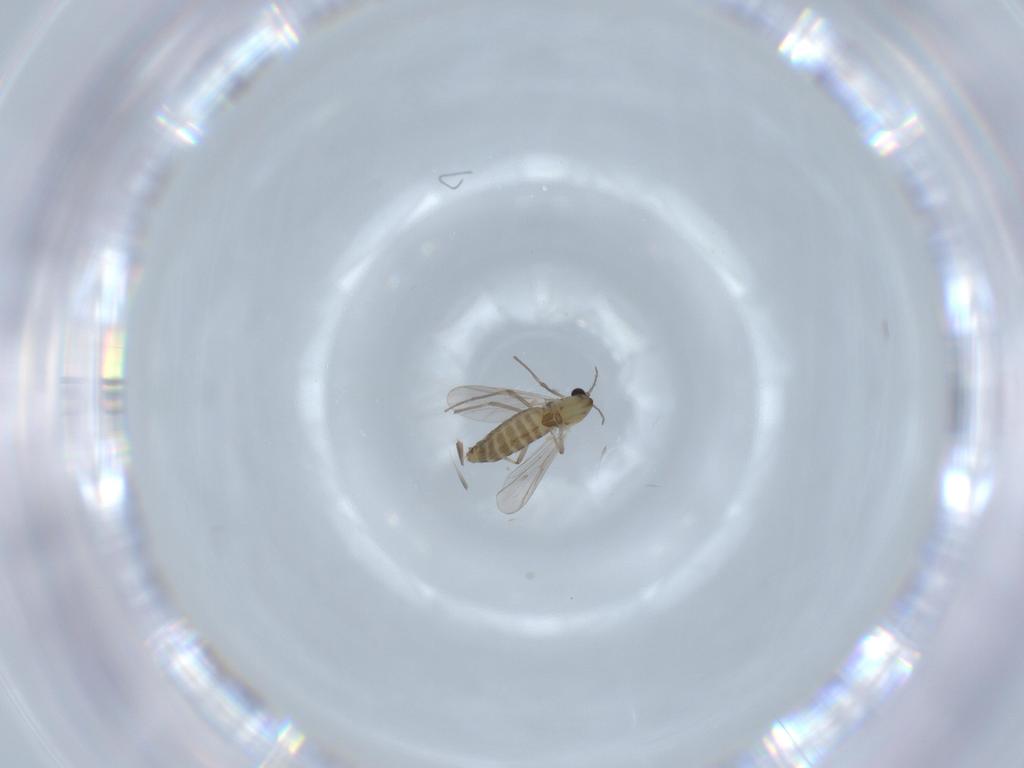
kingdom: Animalia
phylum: Arthropoda
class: Insecta
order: Diptera
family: Chironomidae
